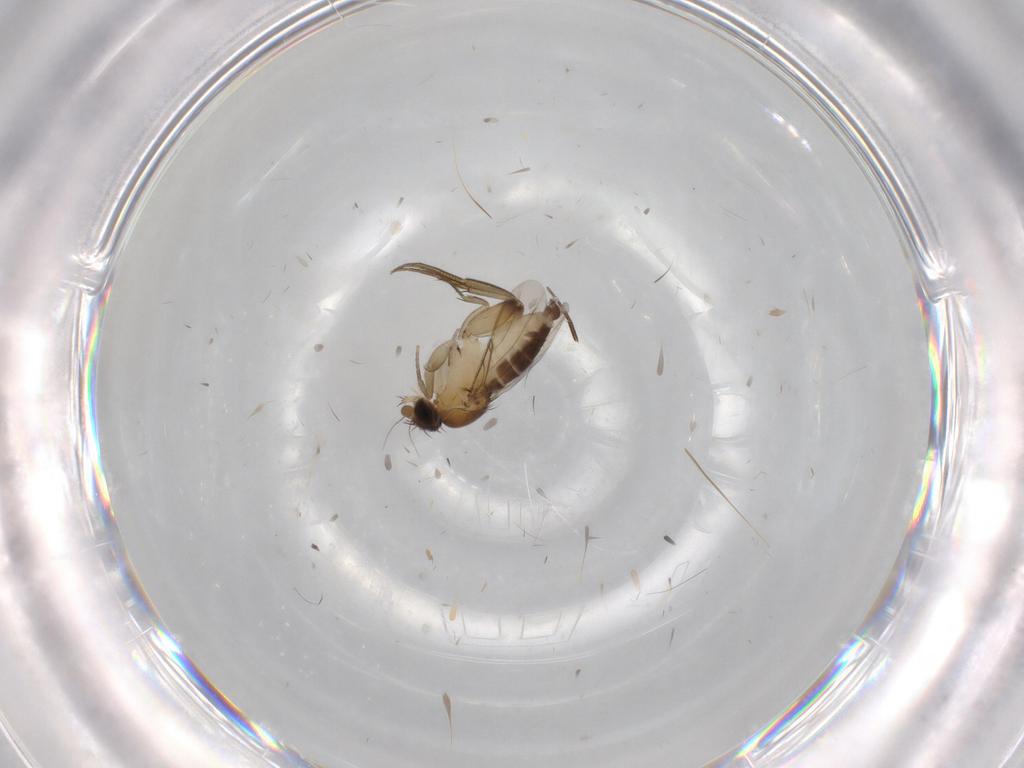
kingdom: Animalia
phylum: Arthropoda
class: Insecta
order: Diptera
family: Phoridae
